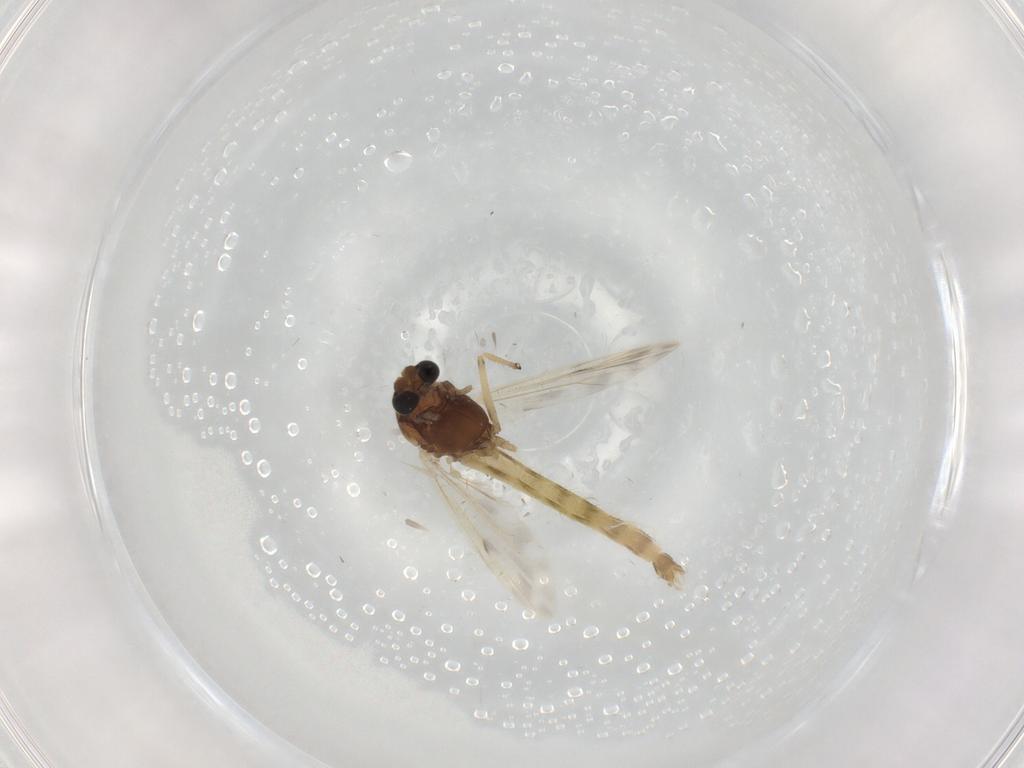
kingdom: Animalia
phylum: Arthropoda
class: Insecta
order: Diptera
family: Chironomidae
